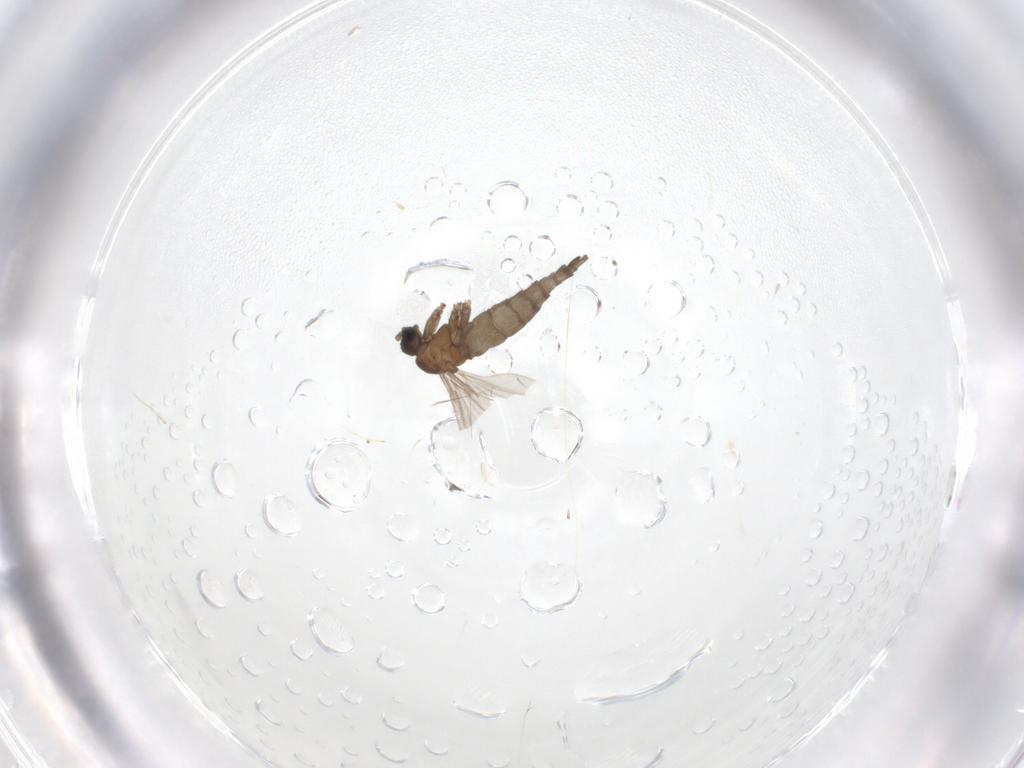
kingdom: Animalia
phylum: Arthropoda
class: Insecta
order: Diptera
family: Sciaridae
